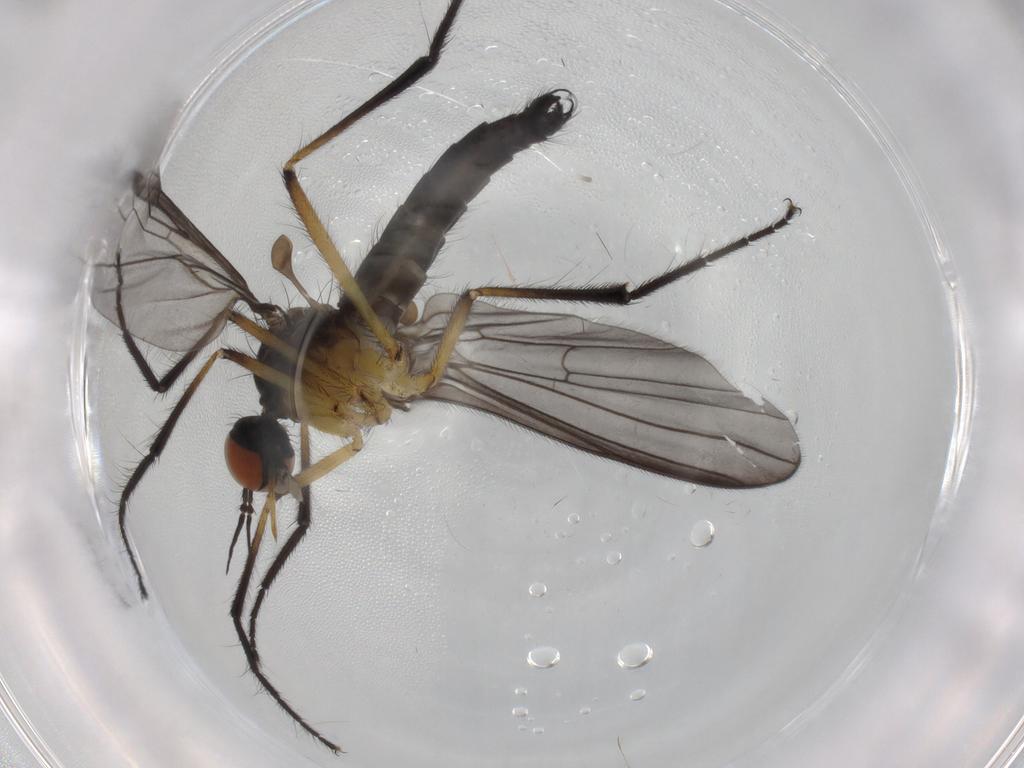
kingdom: Animalia
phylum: Arthropoda
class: Insecta
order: Diptera
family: Empididae
